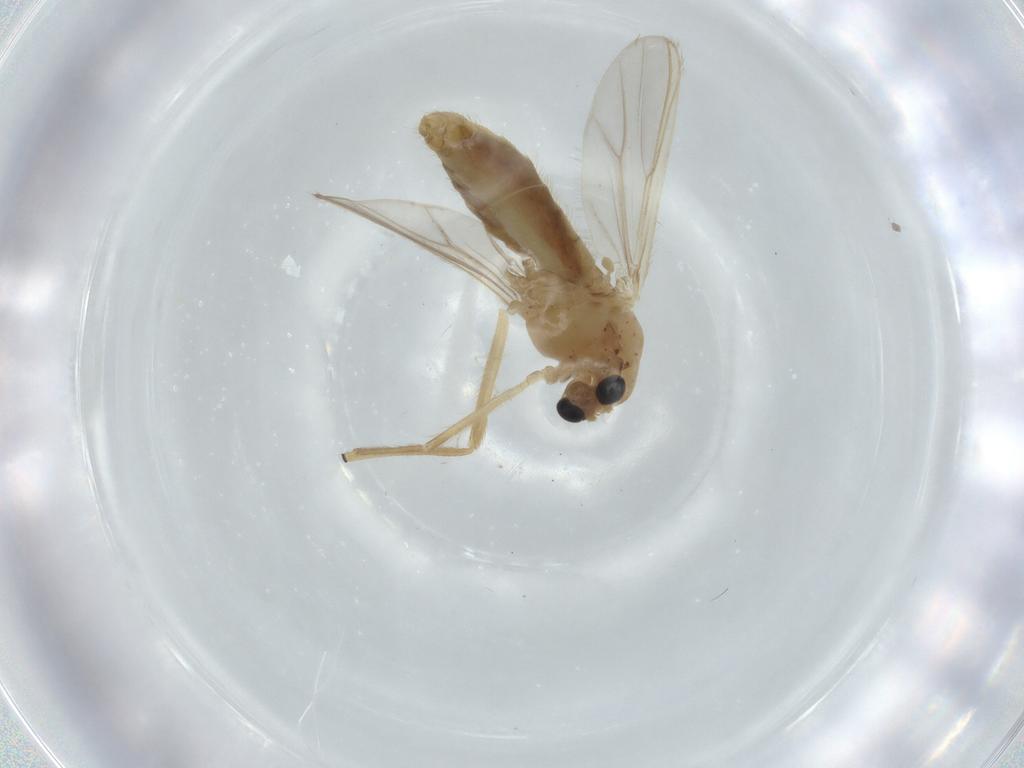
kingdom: Animalia
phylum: Arthropoda
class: Insecta
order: Diptera
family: Chironomidae
